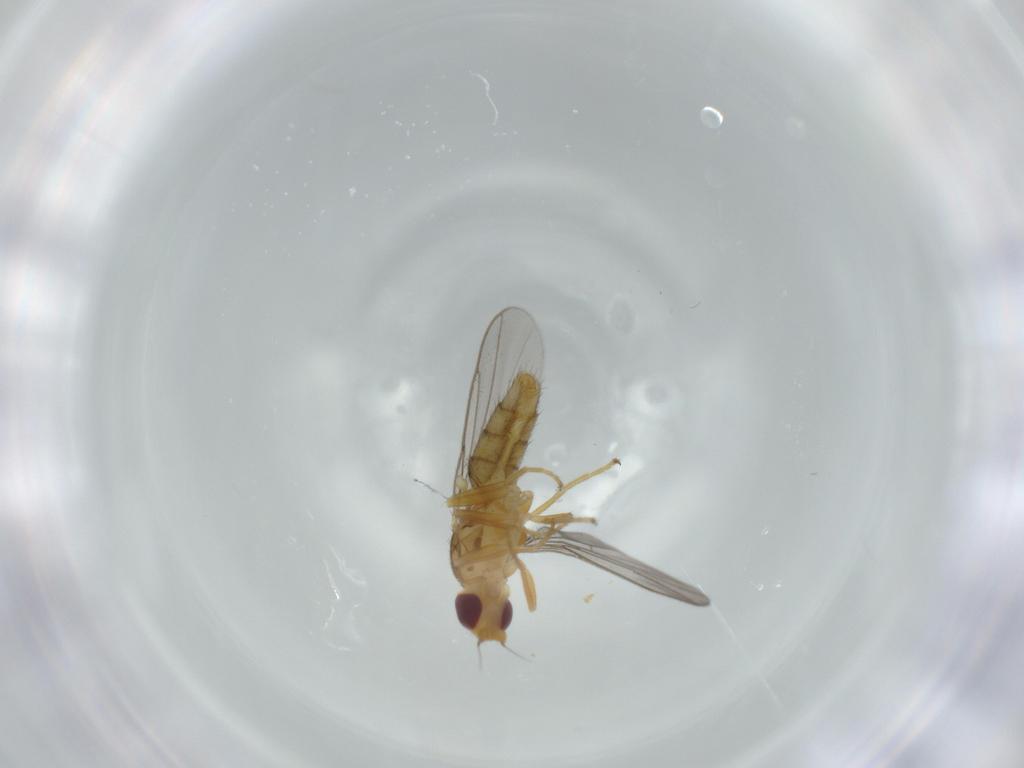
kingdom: Animalia
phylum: Arthropoda
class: Insecta
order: Diptera
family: Chloropidae
